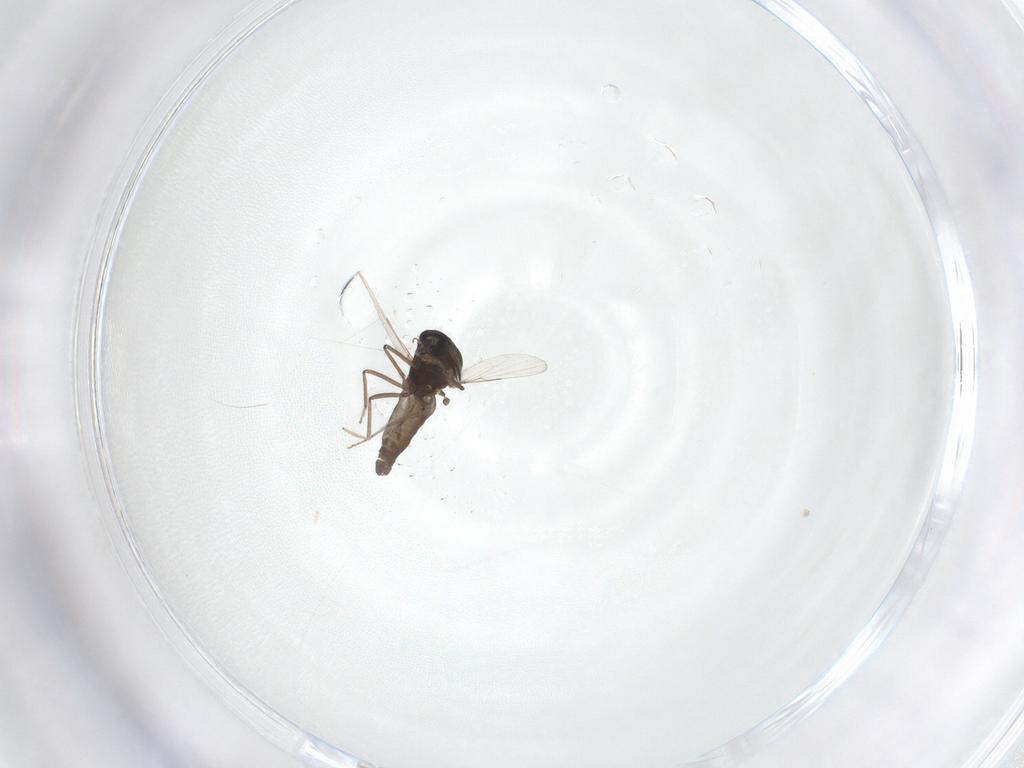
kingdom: Animalia
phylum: Arthropoda
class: Insecta
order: Diptera
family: Ceratopogonidae
